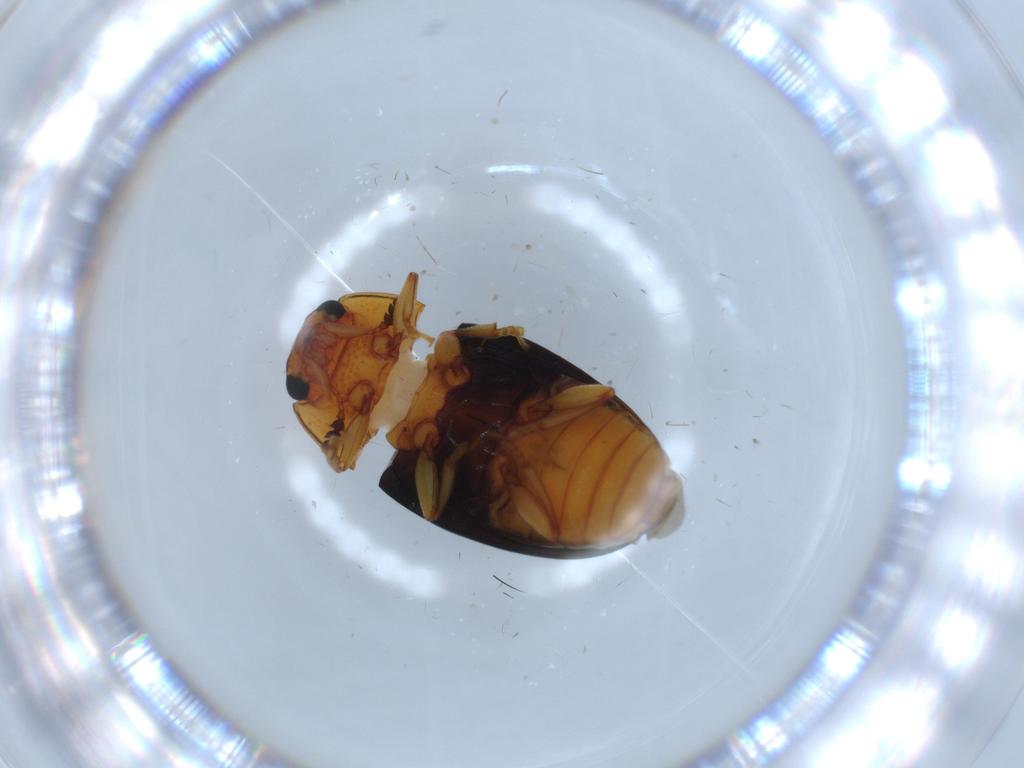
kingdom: Animalia
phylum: Arthropoda
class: Insecta
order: Coleoptera
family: Erotylidae
